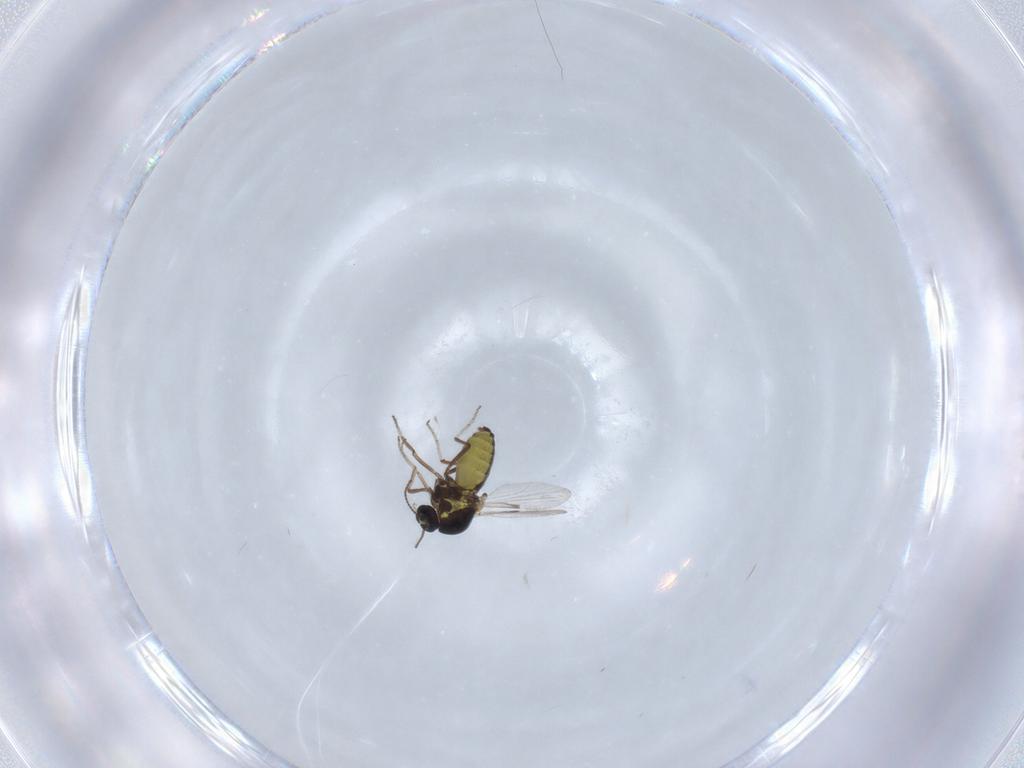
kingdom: Animalia
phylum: Arthropoda
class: Insecta
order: Diptera
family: Ceratopogonidae
